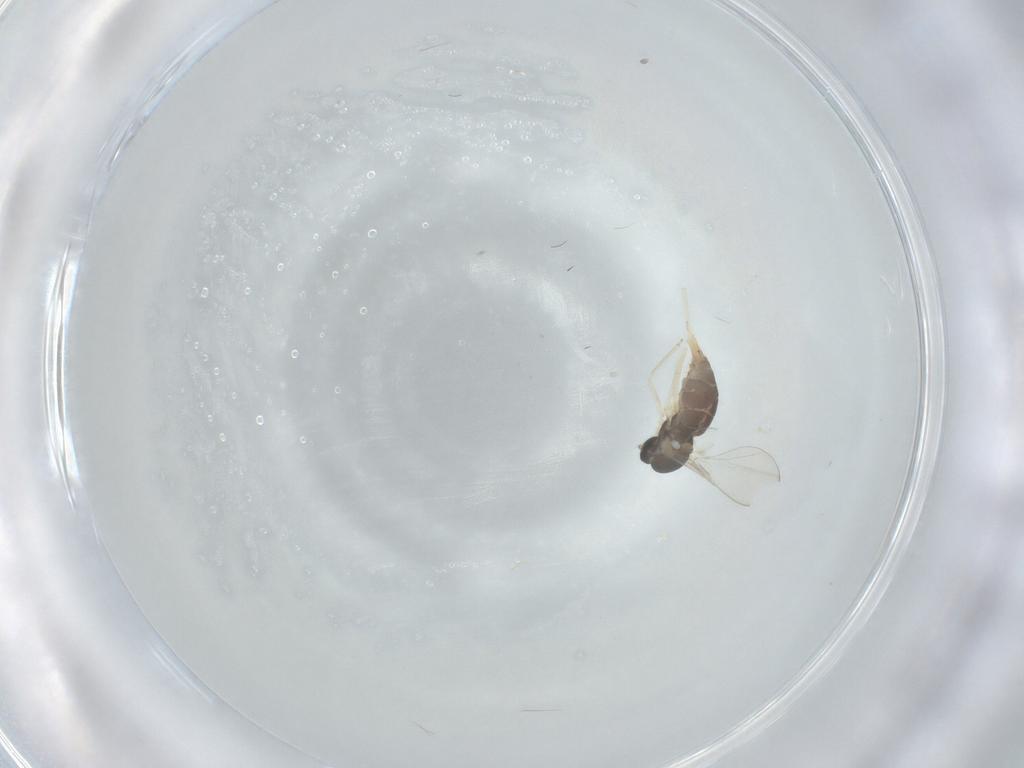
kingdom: Animalia
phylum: Arthropoda
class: Insecta
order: Diptera
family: Cecidomyiidae
